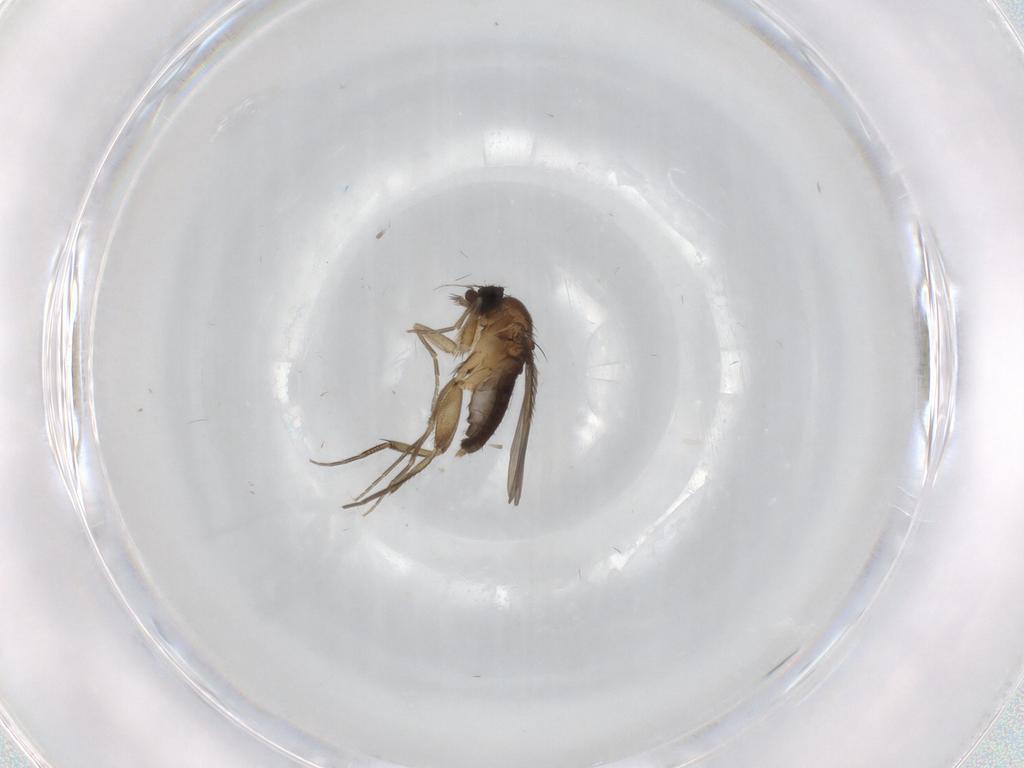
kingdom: Animalia
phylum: Arthropoda
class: Insecta
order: Diptera
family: Phoridae
